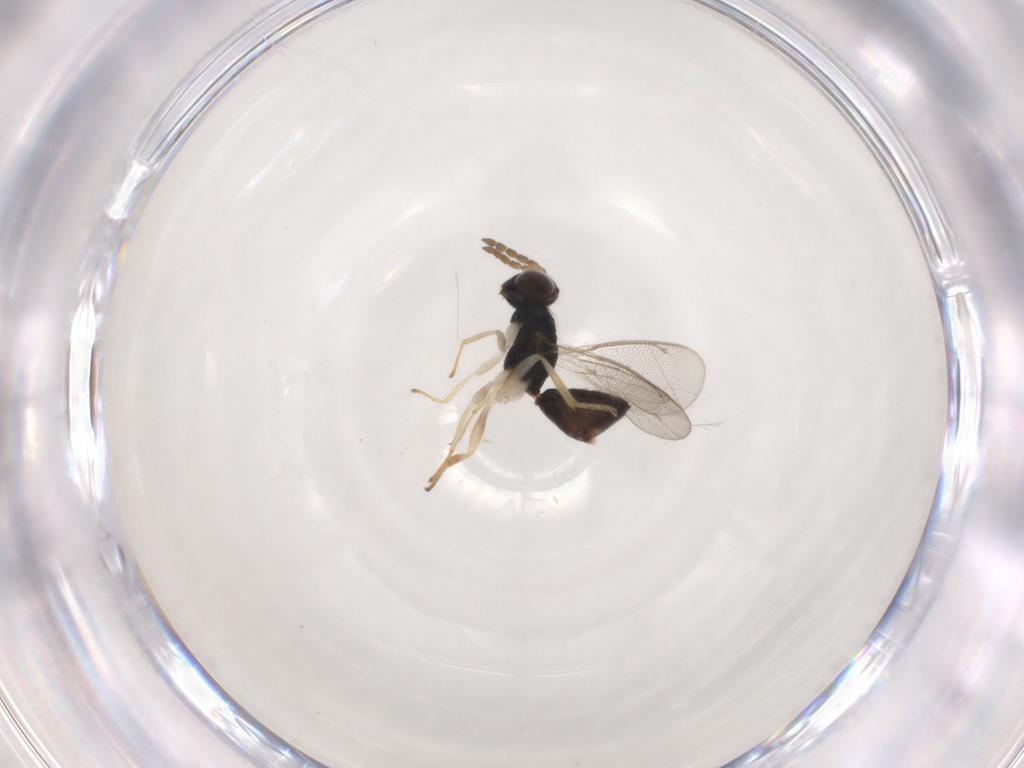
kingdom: Animalia
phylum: Arthropoda
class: Insecta
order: Hymenoptera
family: Eulophidae
